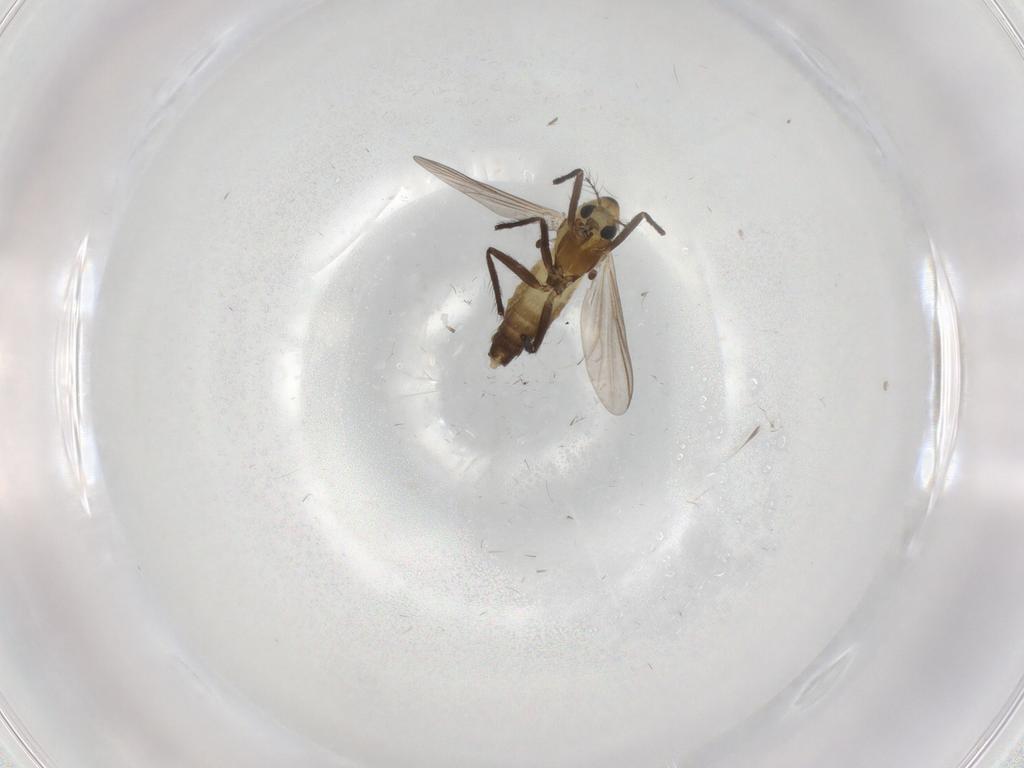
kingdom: Animalia
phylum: Arthropoda
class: Insecta
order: Diptera
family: Chironomidae
